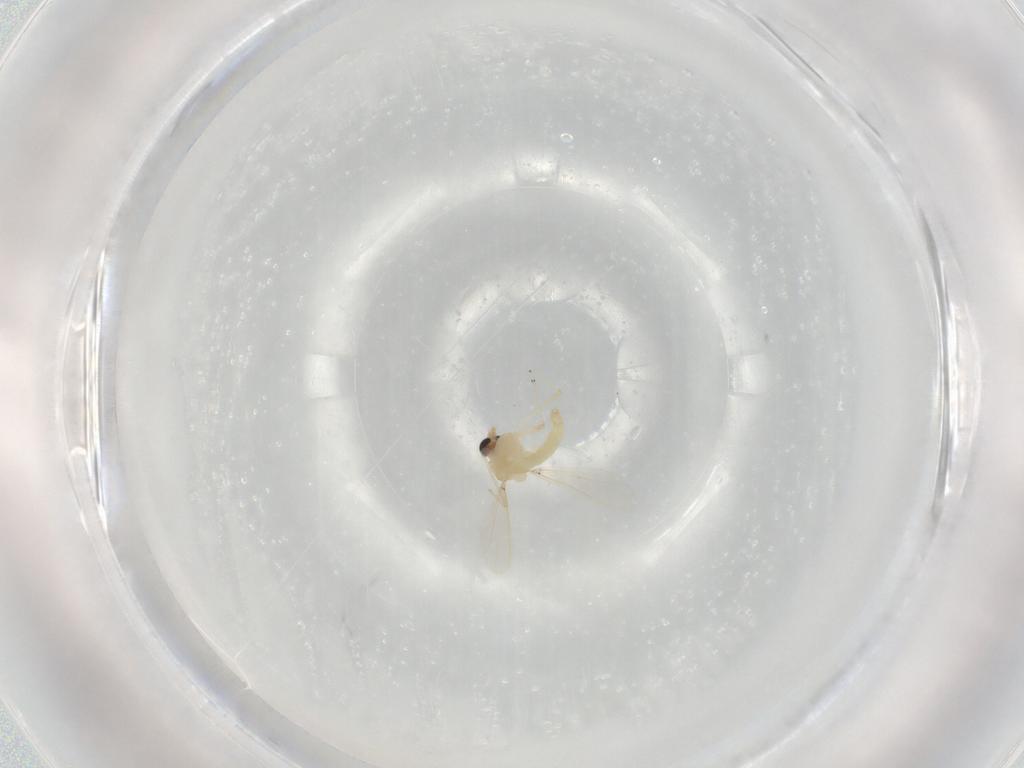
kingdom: Animalia
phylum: Arthropoda
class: Insecta
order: Diptera
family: Chironomidae
